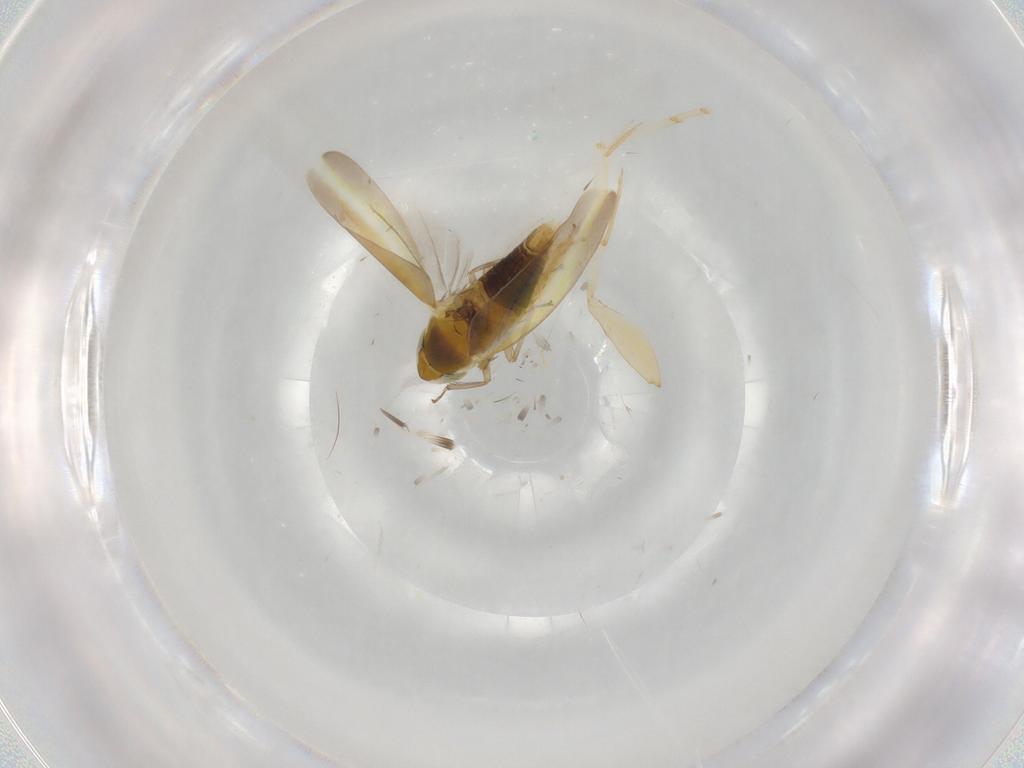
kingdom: Animalia
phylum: Arthropoda
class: Insecta
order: Hemiptera
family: Cicadellidae
